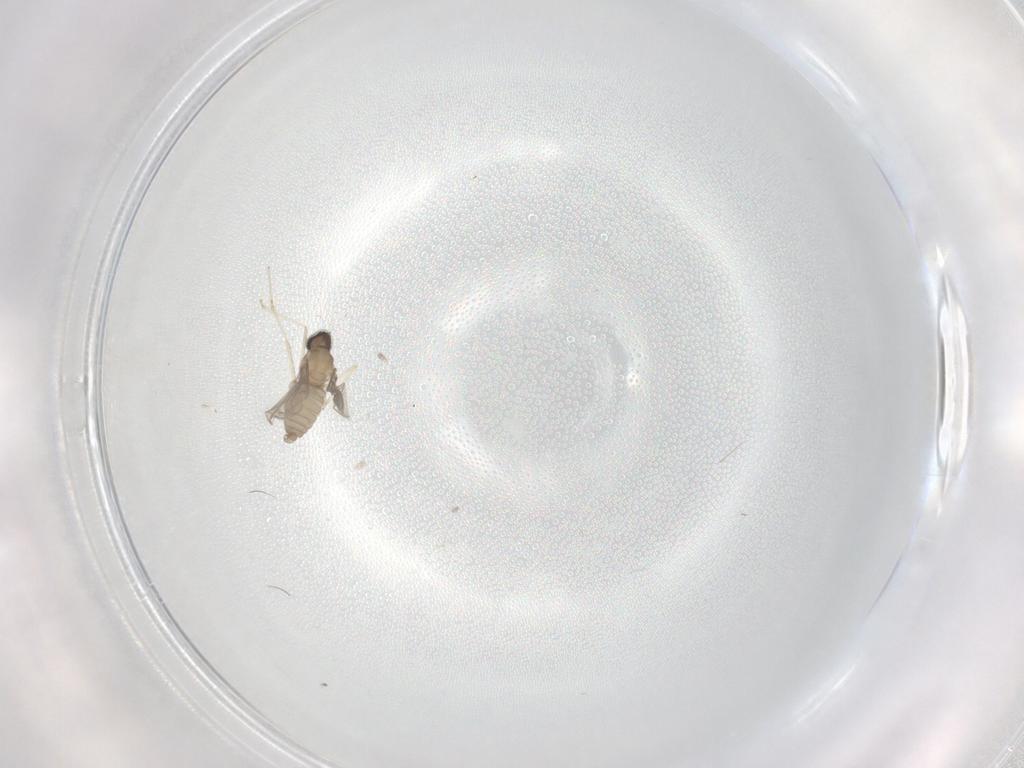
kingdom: Animalia
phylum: Arthropoda
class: Insecta
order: Diptera
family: Cecidomyiidae
